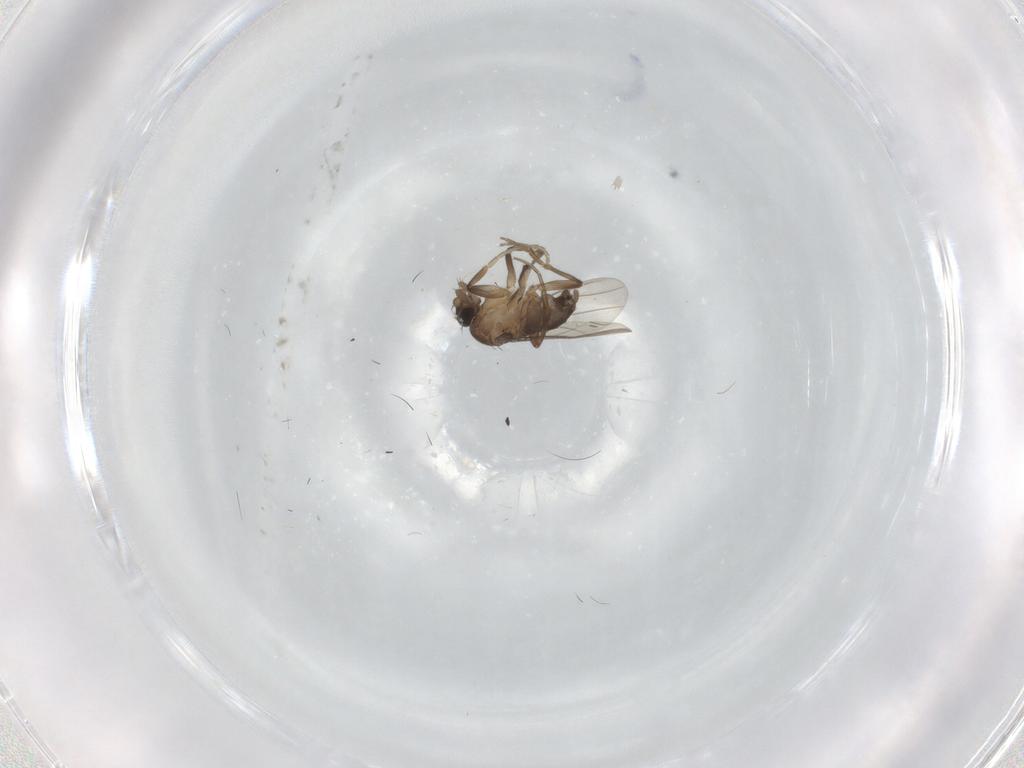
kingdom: Animalia
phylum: Arthropoda
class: Insecta
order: Diptera
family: Phoridae
